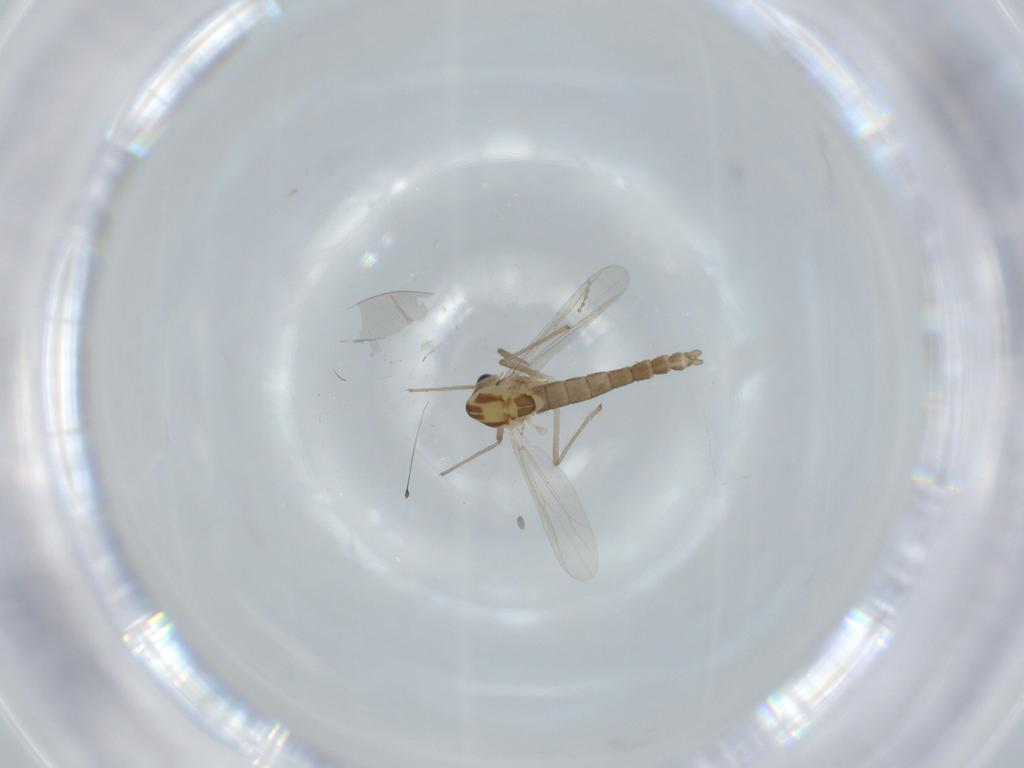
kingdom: Animalia
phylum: Arthropoda
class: Insecta
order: Diptera
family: Chironomidae
